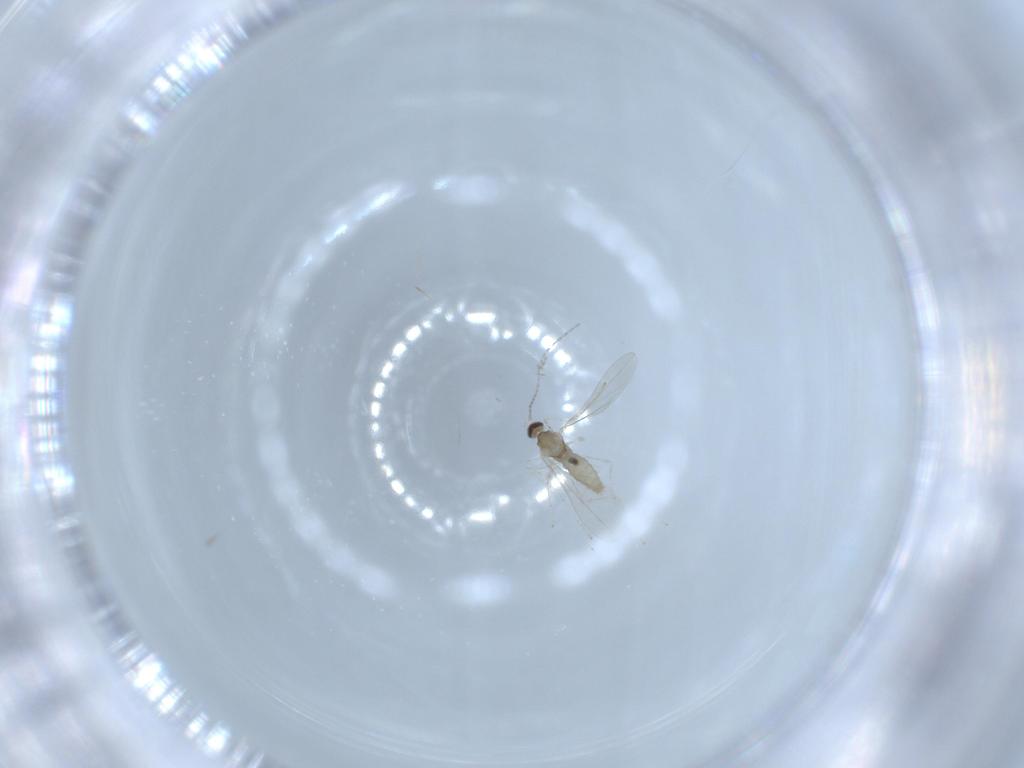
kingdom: Animalia
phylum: Arthropoda
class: Insecta
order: Diptera
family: Cecidomyiidae
